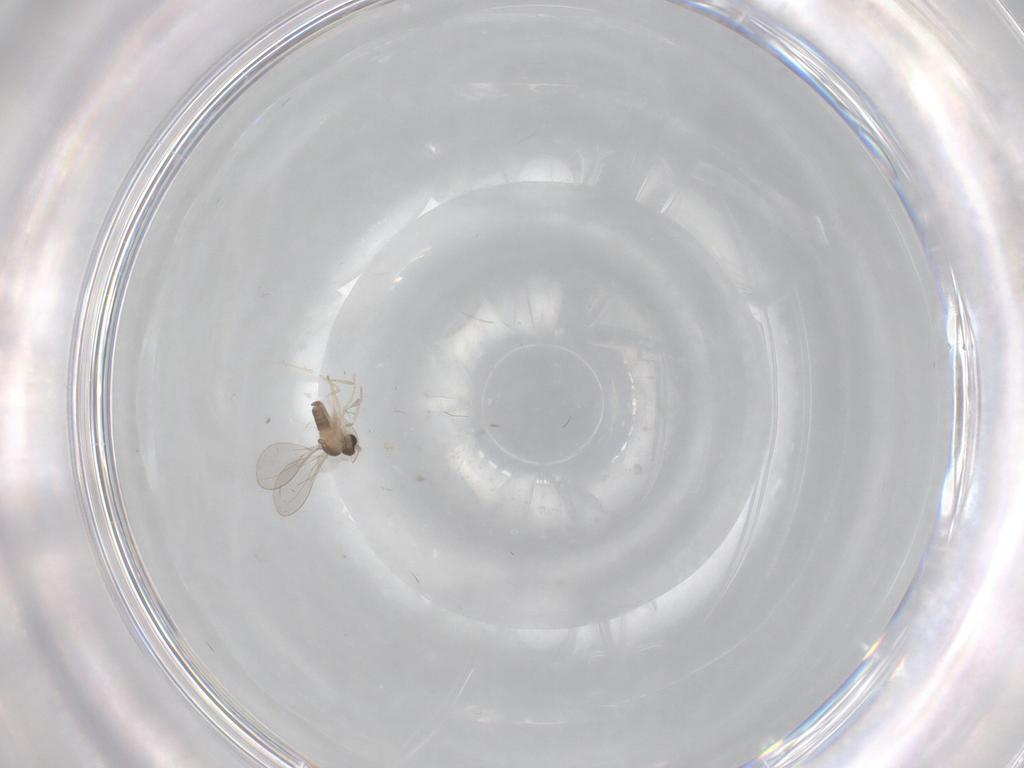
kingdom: Animalia
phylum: Arthropoda
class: Insecta
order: Diptera
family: Cecidomyiidae
